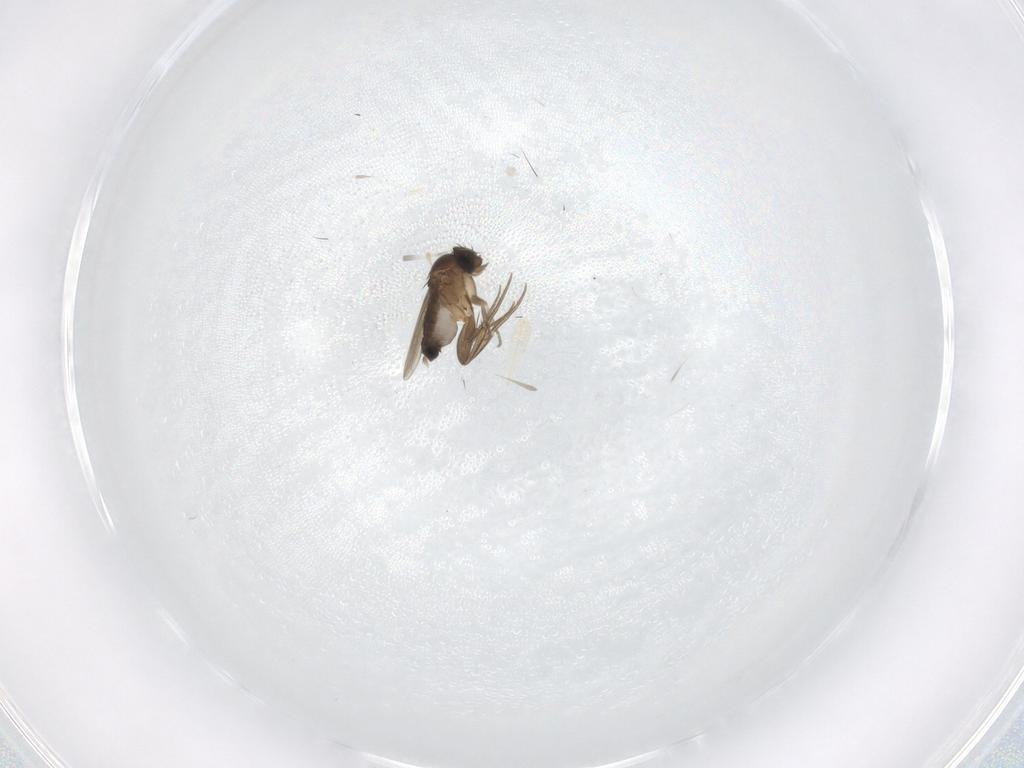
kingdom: Animalia
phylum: Arthropoda
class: Insecta
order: Diptera
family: Phoridae
